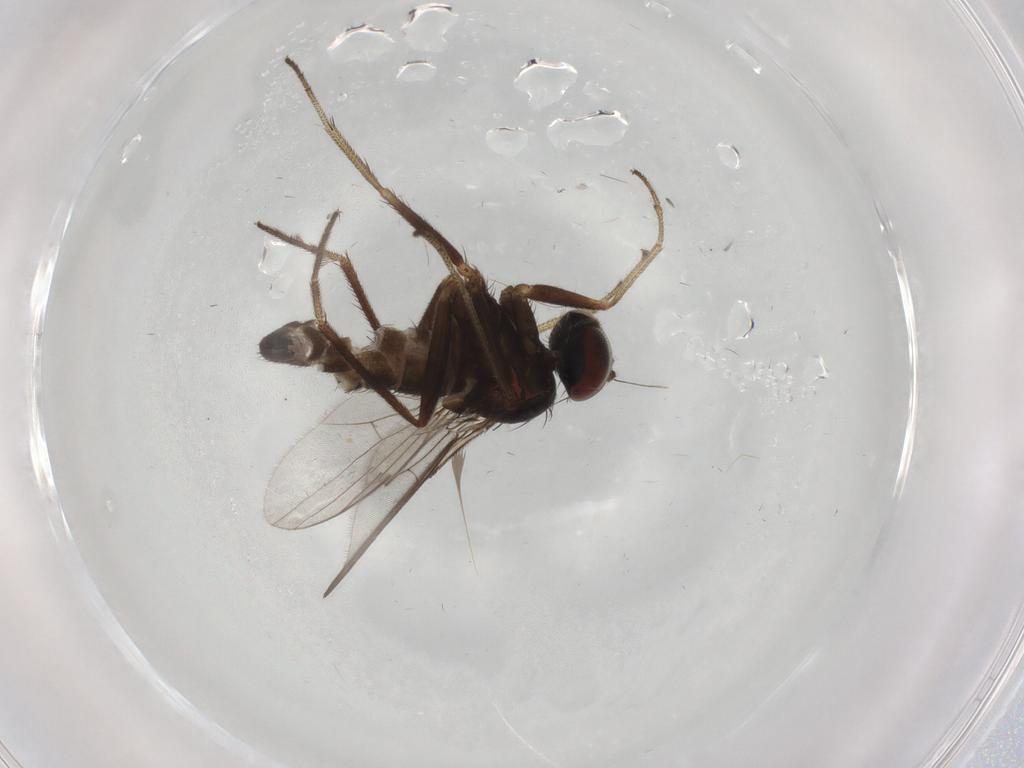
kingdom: Animalia
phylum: Arthropoda
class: Insecta
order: Diptera
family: Dolichopodidae
